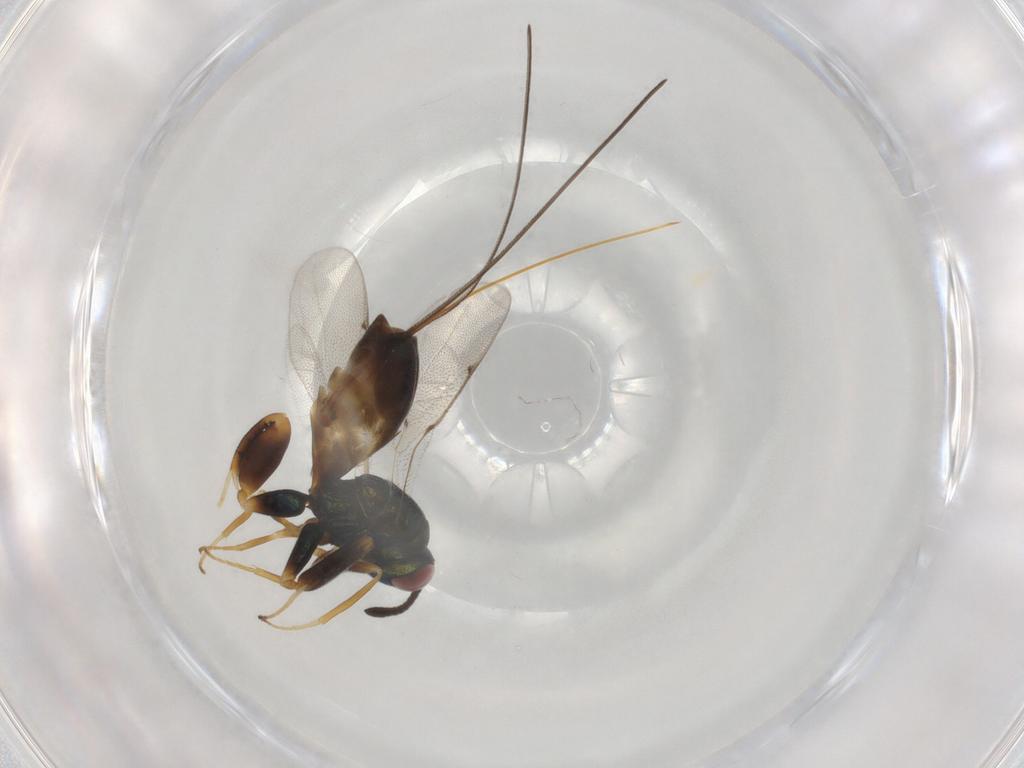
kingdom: Animalia
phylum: Arthropoda
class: Insecta
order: Hymenoptera
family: Torymidae
